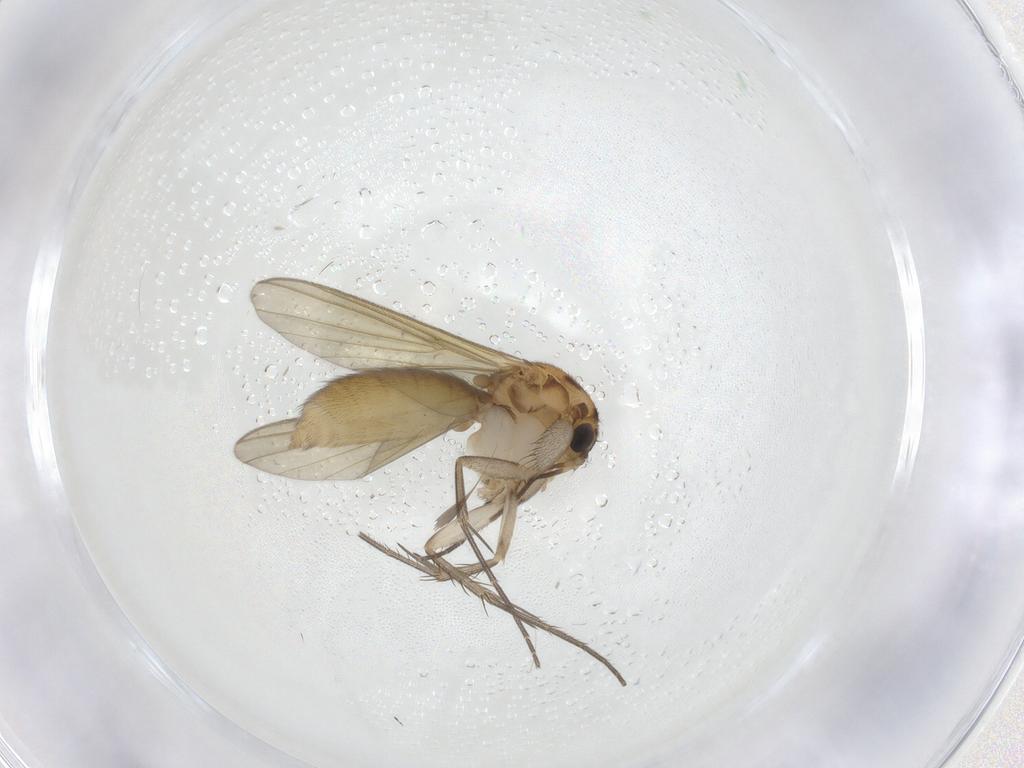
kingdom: Animalia
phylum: Arthropoda
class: Insecta
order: Diptera
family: Mycetophilidae
